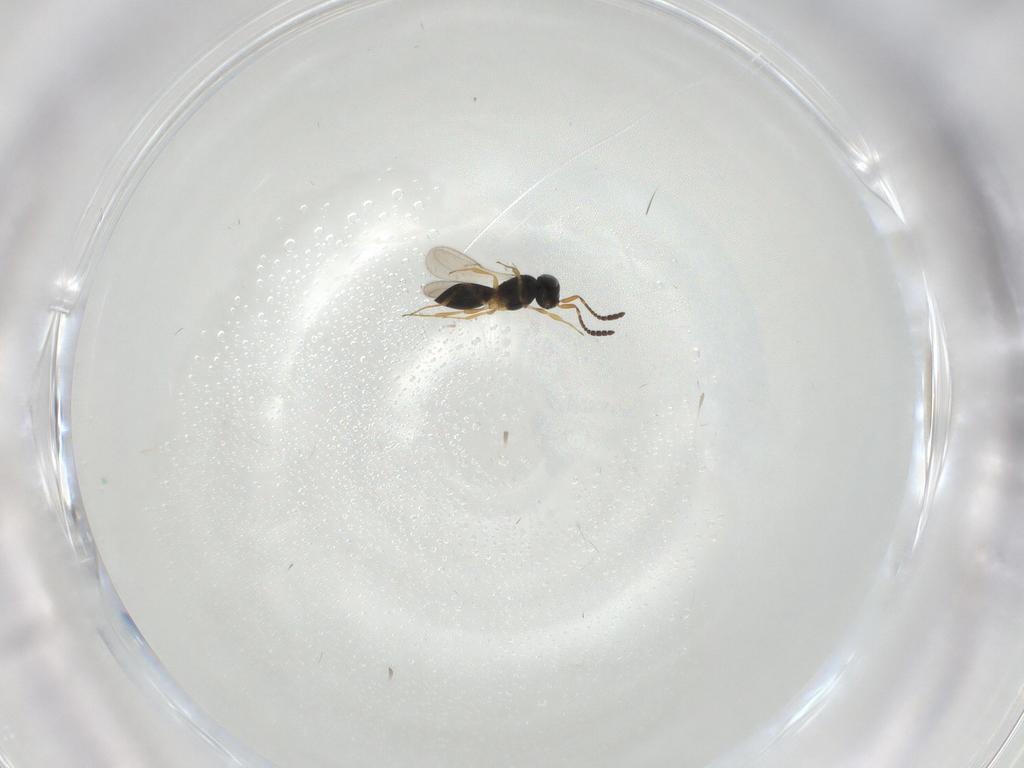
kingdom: Animalia
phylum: Arthropoda
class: Insecta
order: Hymenoptera
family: Scelionidae
